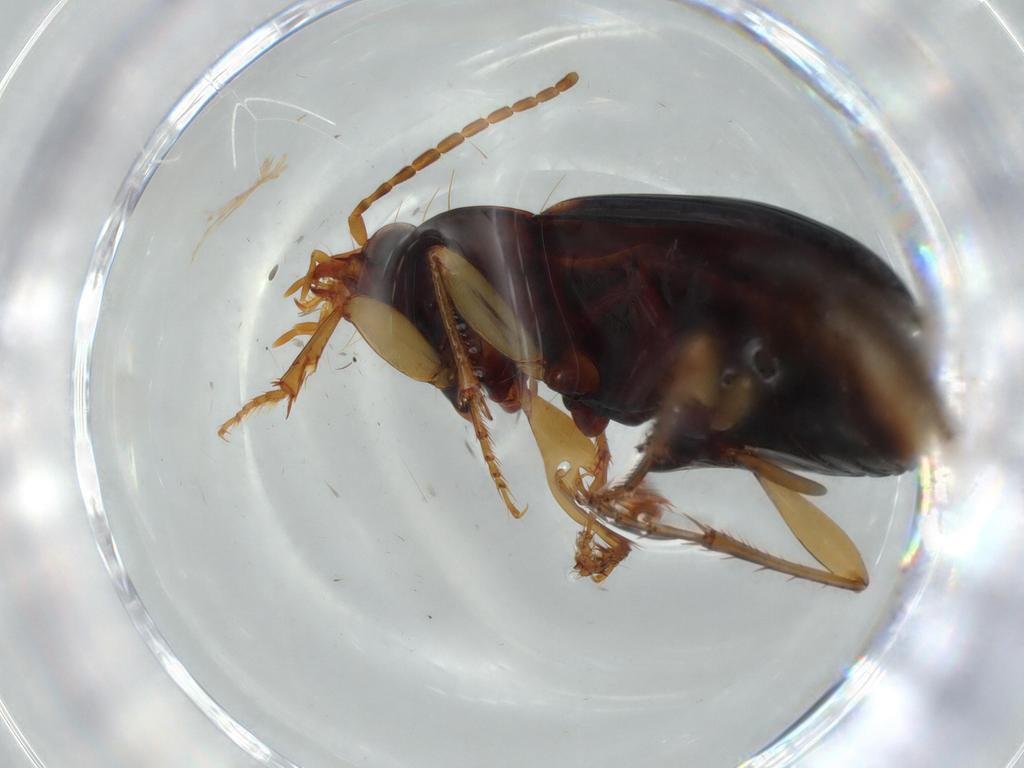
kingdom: Animalia
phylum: Arthropoda
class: Insecta
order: Coleoptera
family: Carabidae
